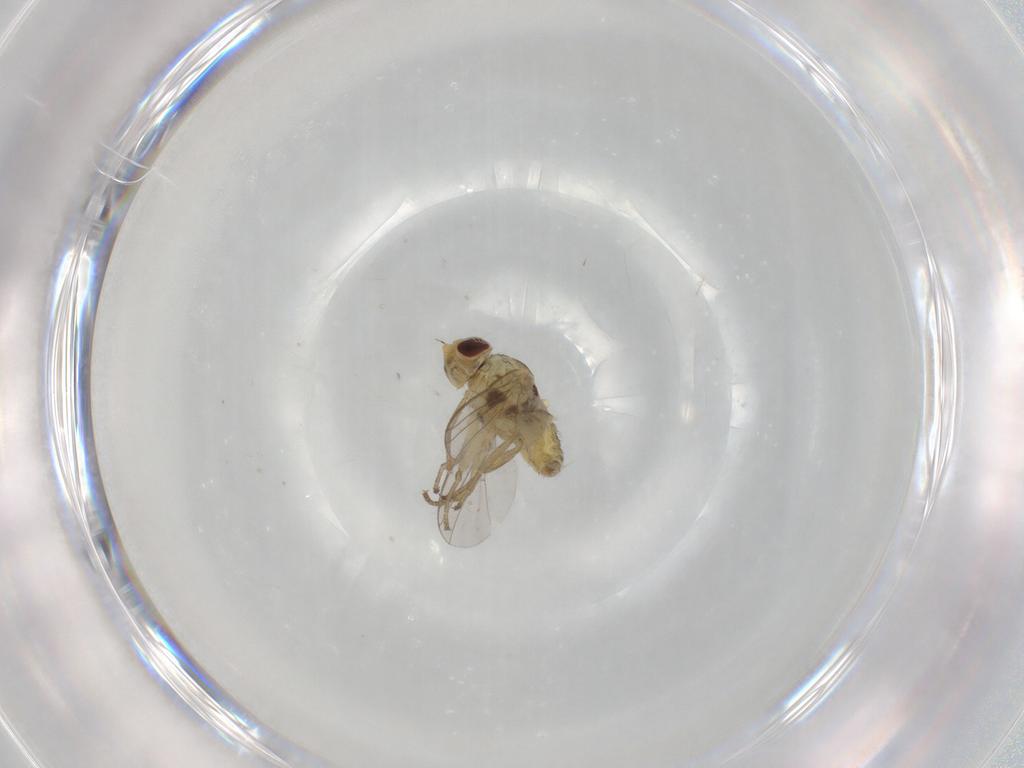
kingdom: Animalia
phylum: Arthropoda
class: Insecta
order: Diptera
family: Agromyzidae
